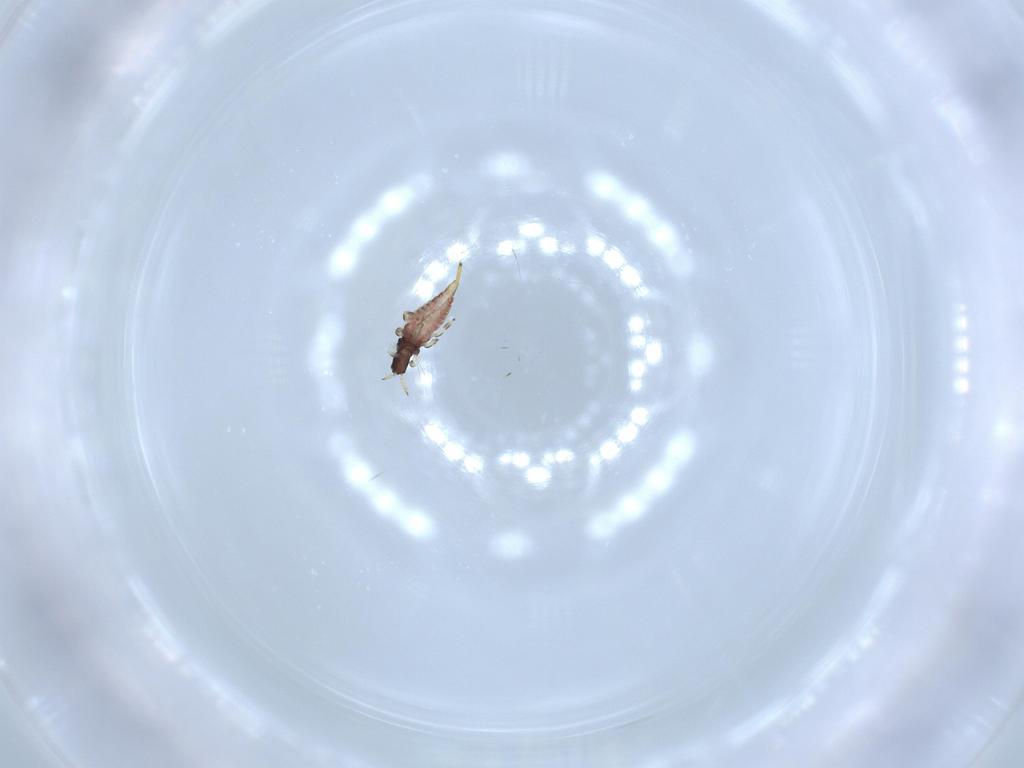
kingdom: Animalia
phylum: Arthropoda
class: Insecta
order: Thysanoptera
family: Phlaeothripidae
